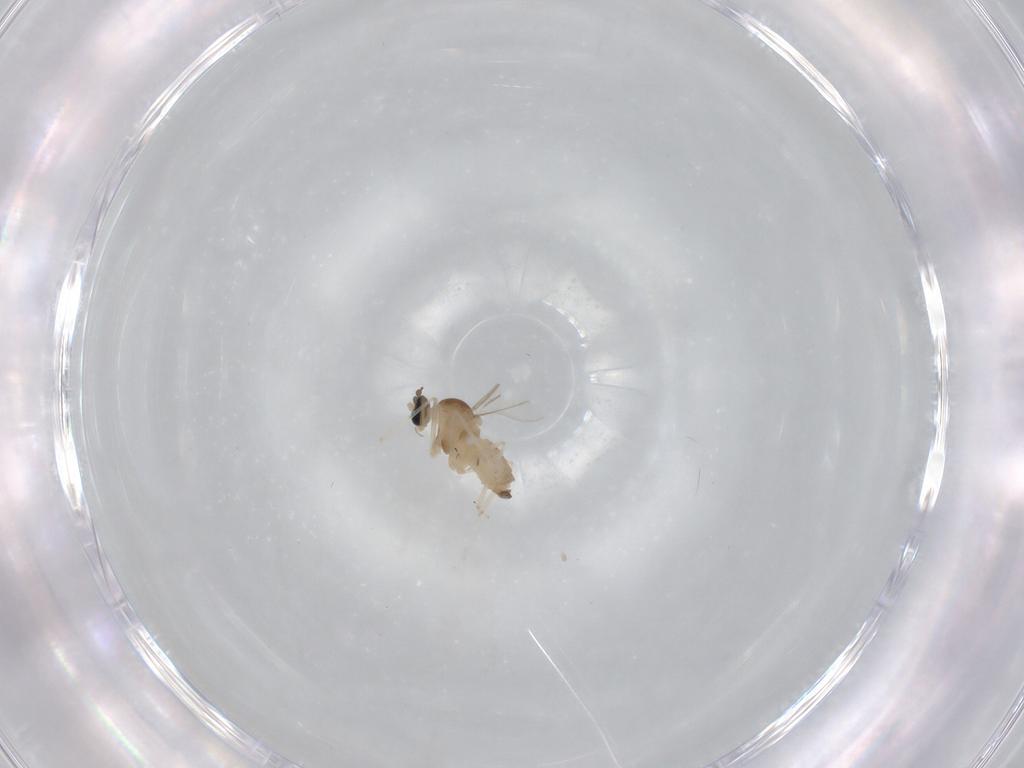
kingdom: Animalia
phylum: Arthropoda
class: Insecta
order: Diptera
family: Cecidomyiidae
